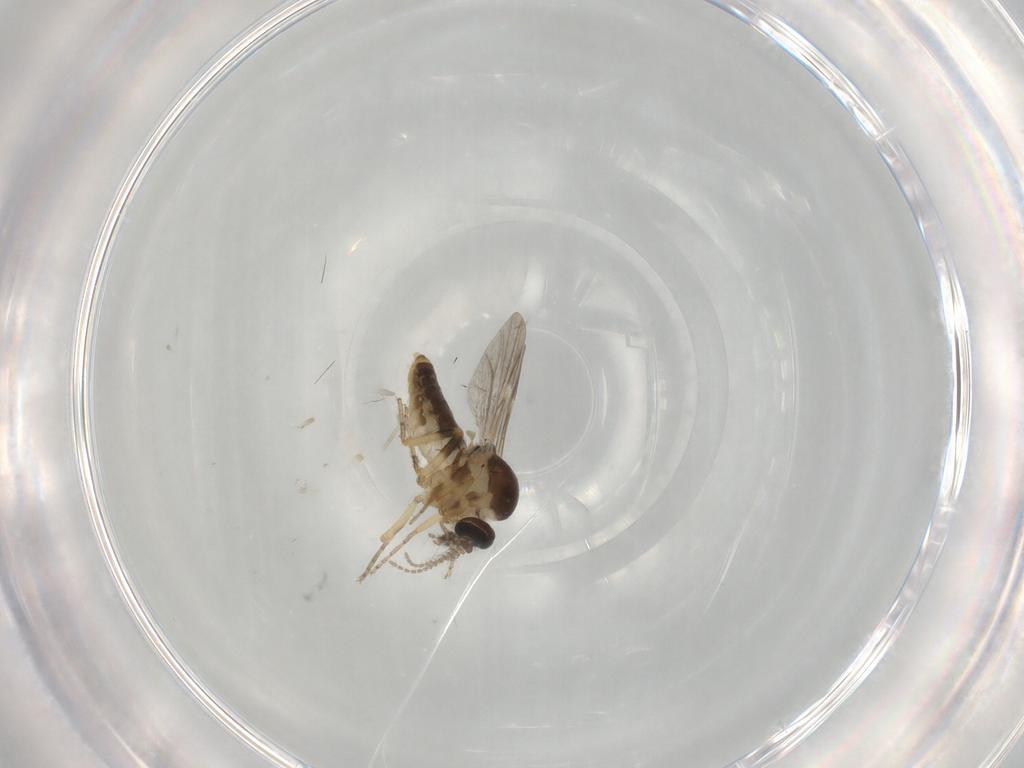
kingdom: Animalia
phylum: Arthropoda
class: Insecta
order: Diptera
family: Ceratopogonidae
